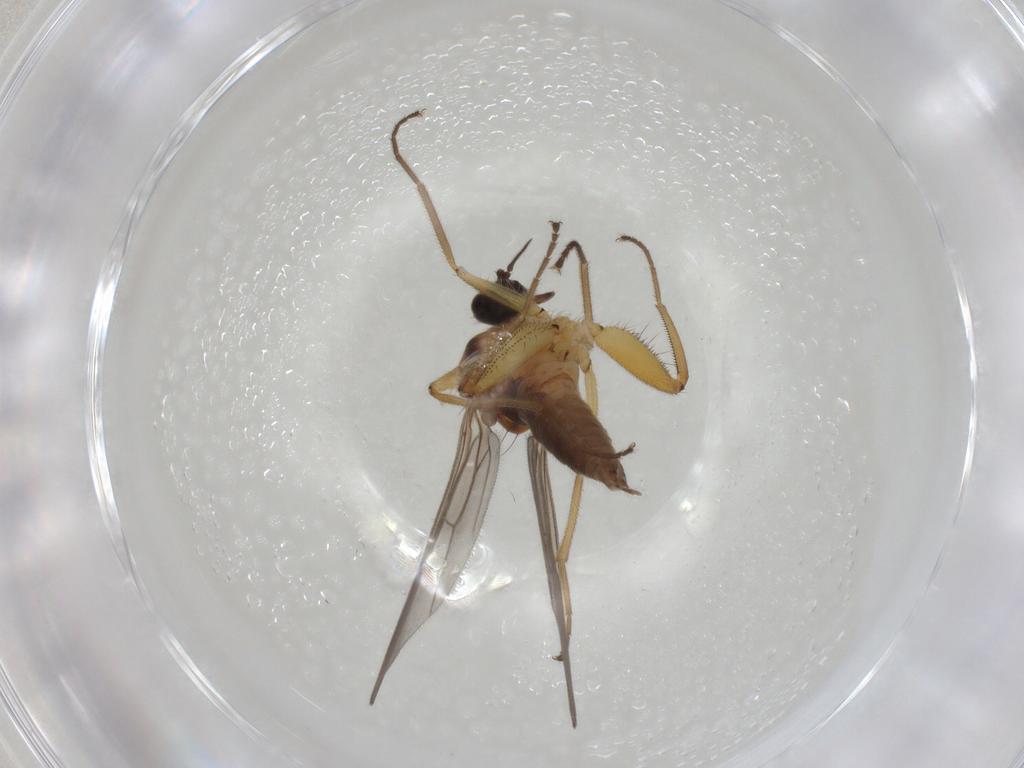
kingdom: Animalia
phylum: Arthropoda
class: Insecta
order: Diptera
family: Hybotidae
